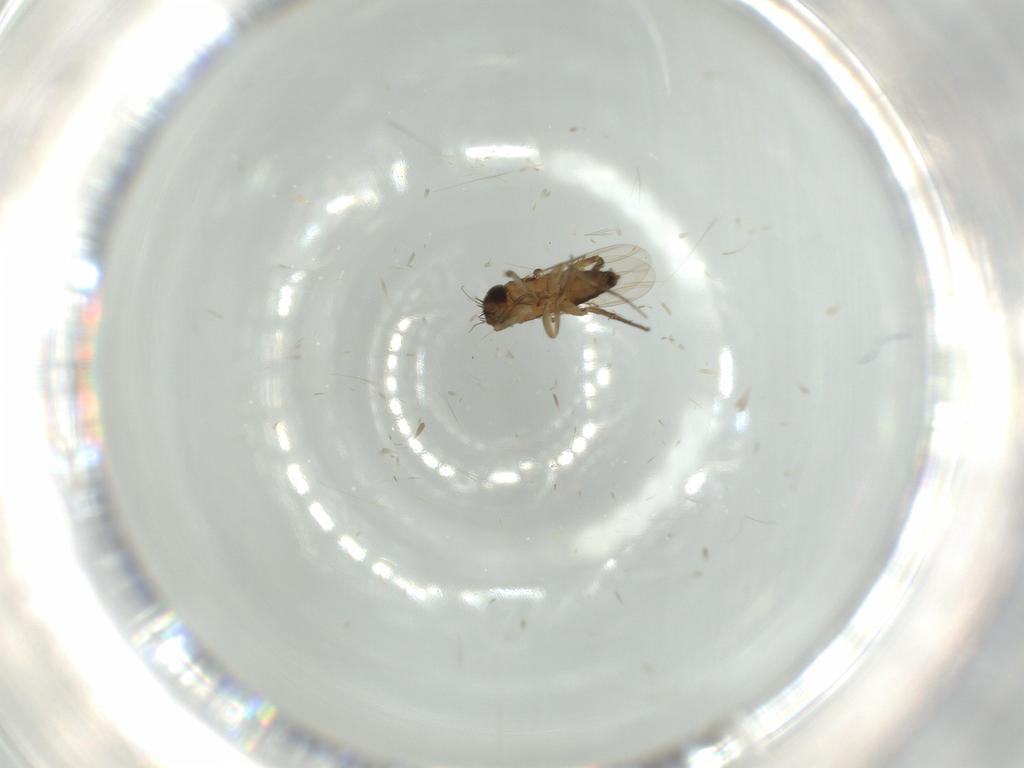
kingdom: Animalia
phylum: Arthropoda
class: Insecta
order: Diptera
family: Phoridae
